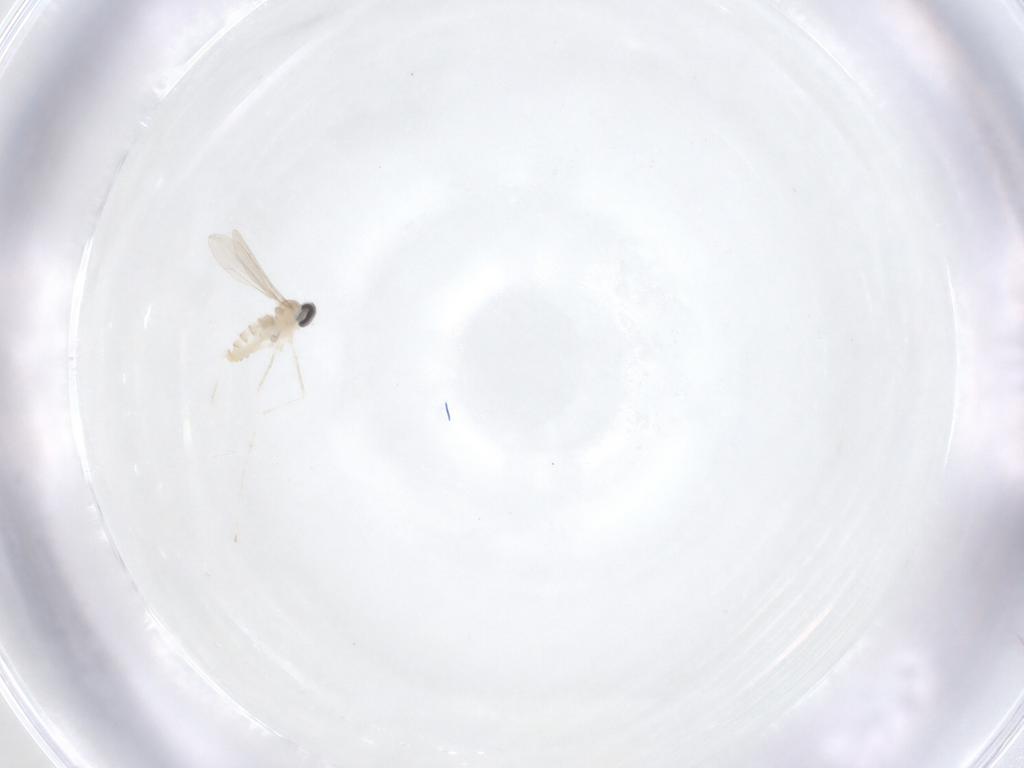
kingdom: Animalia
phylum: Arthropoda
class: Insecta
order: Diptera
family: Cecidomyiidae
